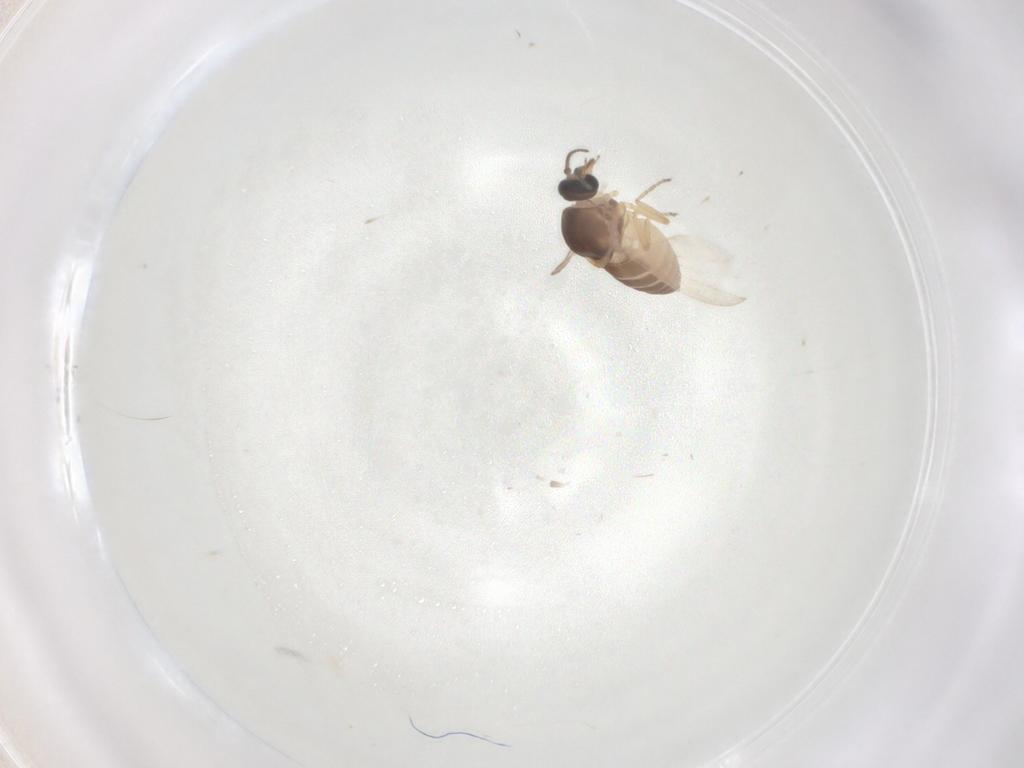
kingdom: Animalia
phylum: Arthropoda
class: Insecta
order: Diptera
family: Ceratopogonidae
